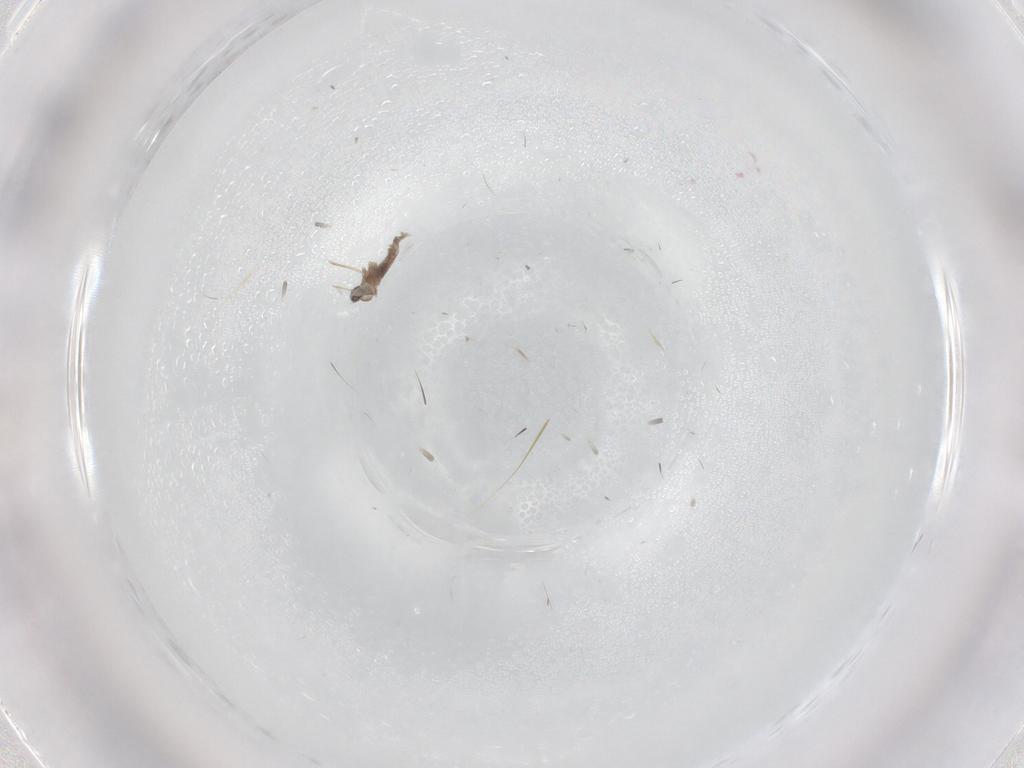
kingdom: Animalia
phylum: Arthropoda
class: Insecta
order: Diptera
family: Cecidomyiidae
